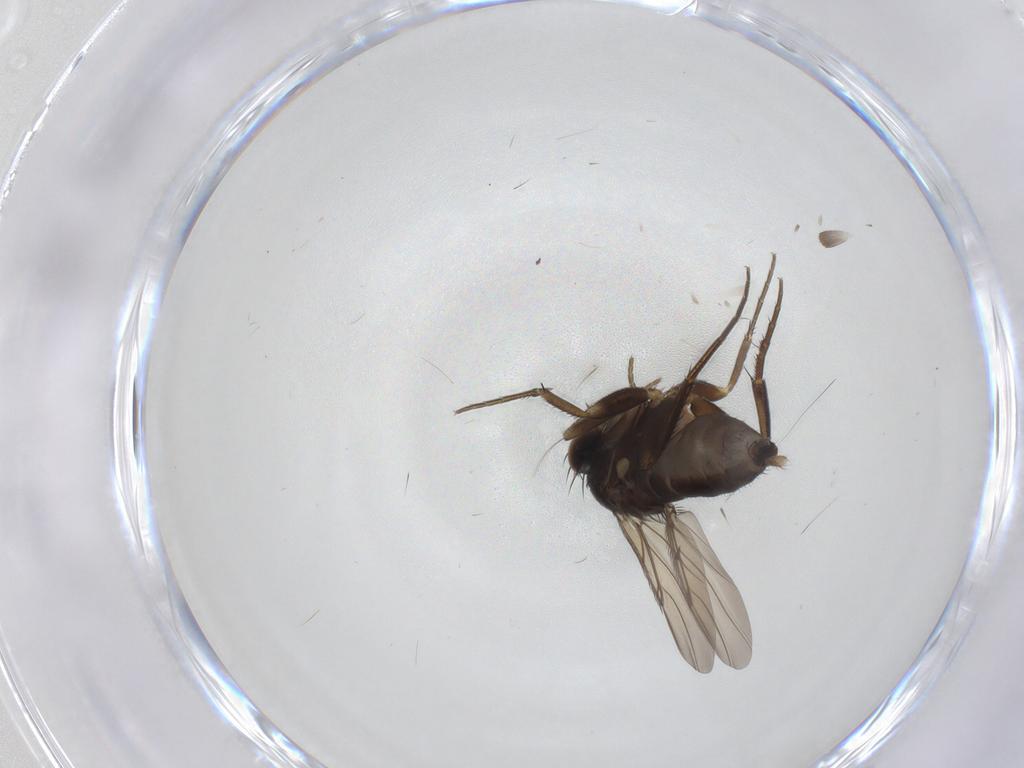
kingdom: Animalia
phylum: Arthropoda
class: Insecta
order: Diptera
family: Phoridae
